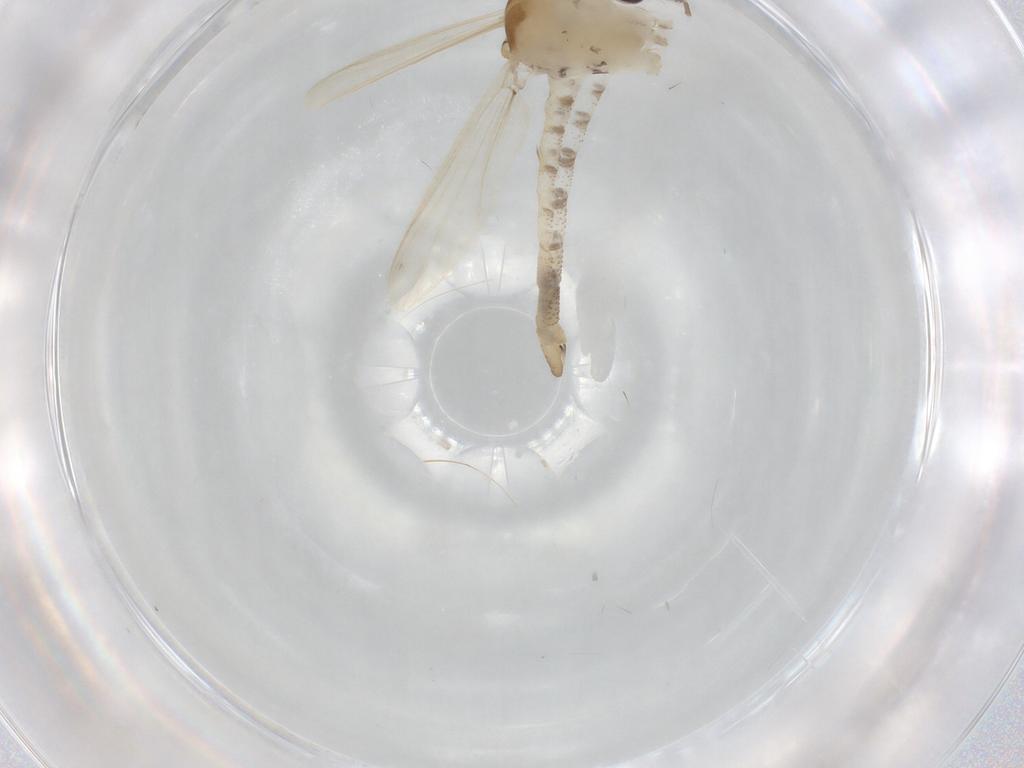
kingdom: Animalia
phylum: Arthropoda
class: Insecta
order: Diptera
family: Chaoboridae
